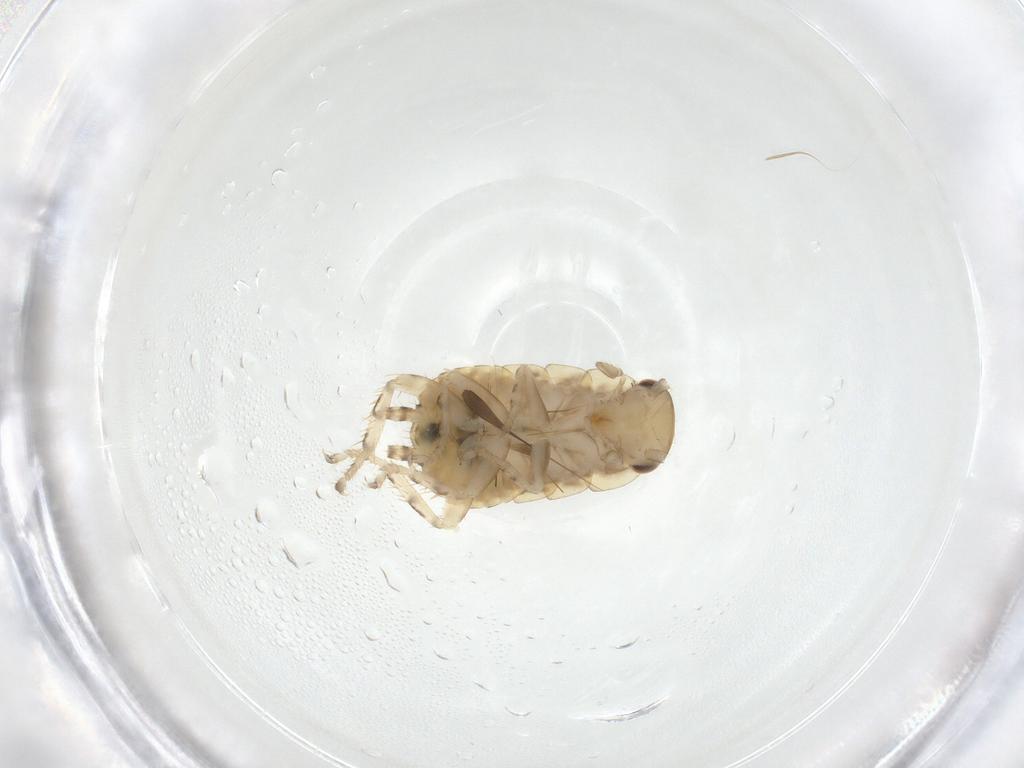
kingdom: Animalia
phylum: Arthropoda
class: Insecta
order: Blattodea
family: Ectobiidae
